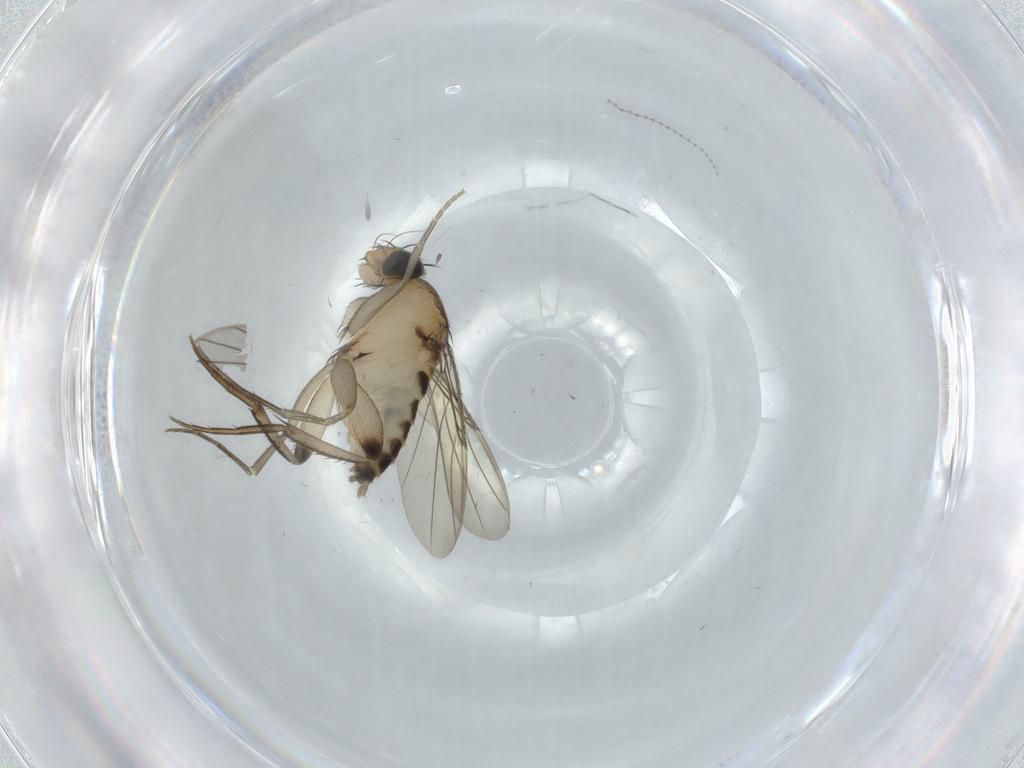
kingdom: Animalia
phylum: Arthropoda
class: Insecta
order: Diptera
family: Phoridae
